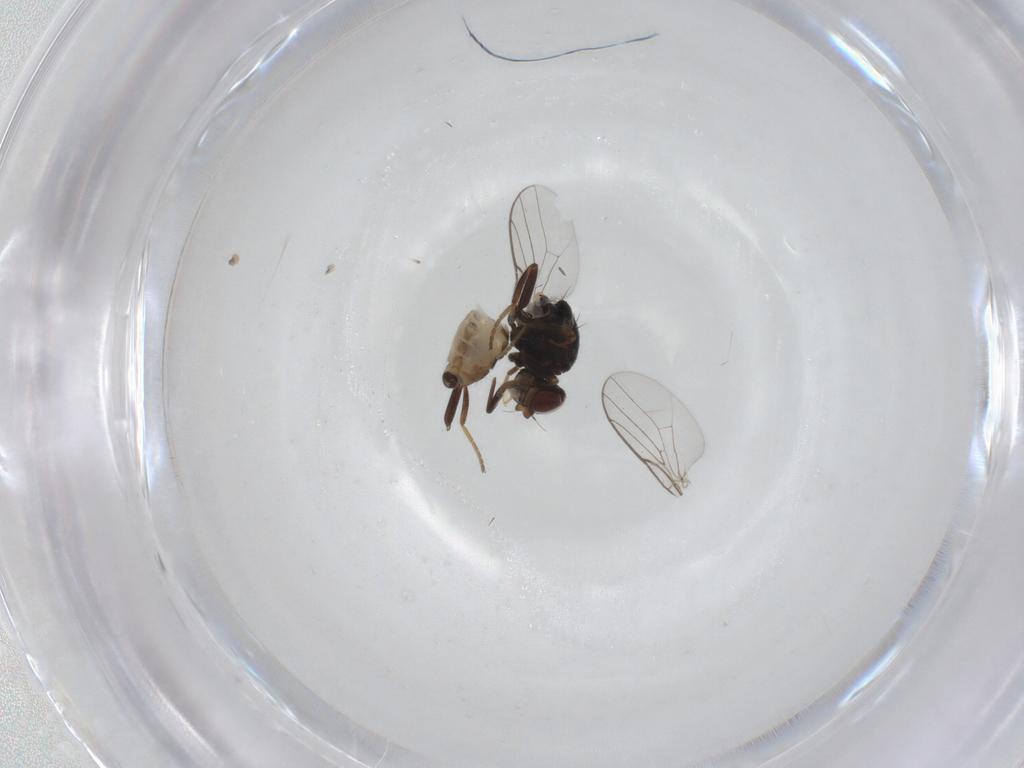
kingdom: Animalia
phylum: Arthropoda
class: Insecta
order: Diptera
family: Chloropidae
